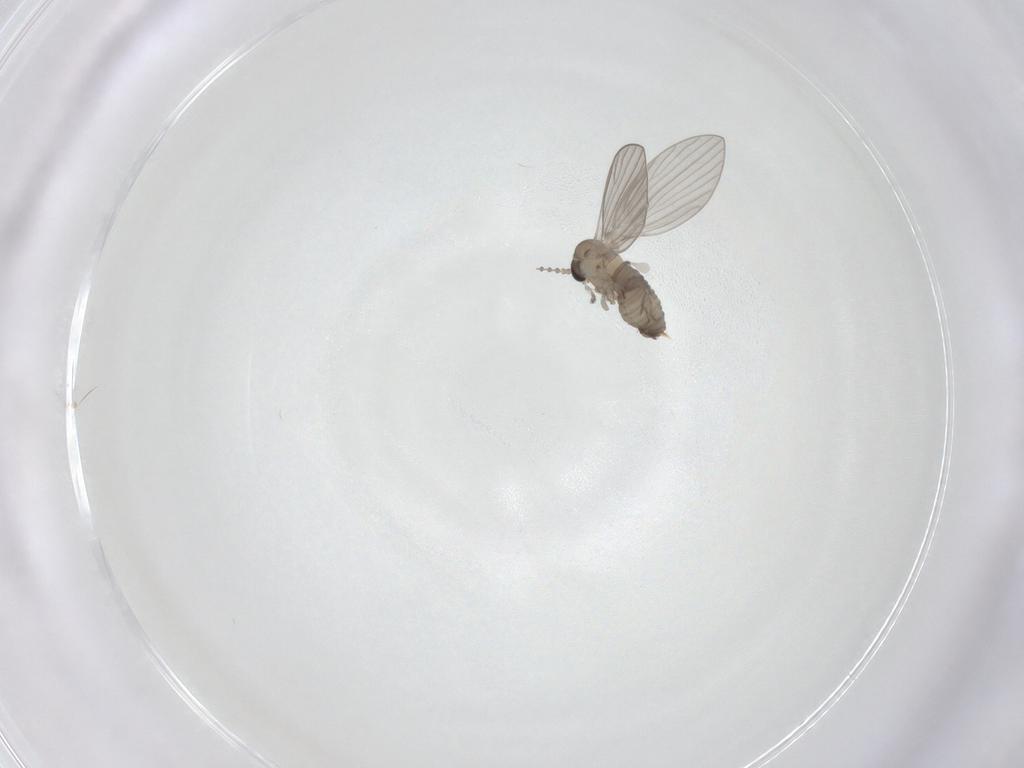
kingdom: Animalia
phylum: Arthropoda
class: Insecta
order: Diptera
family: Psychodidae
